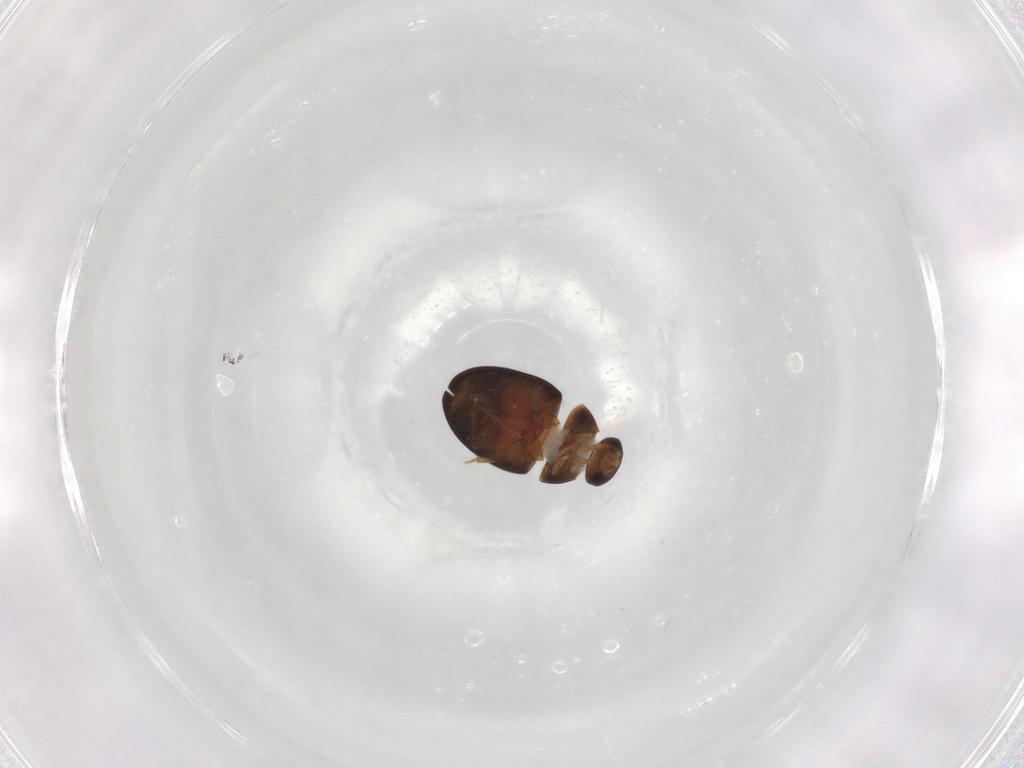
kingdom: Animalia
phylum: Arthropoda
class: Insecta
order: Coleoptera
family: Phalacridae
